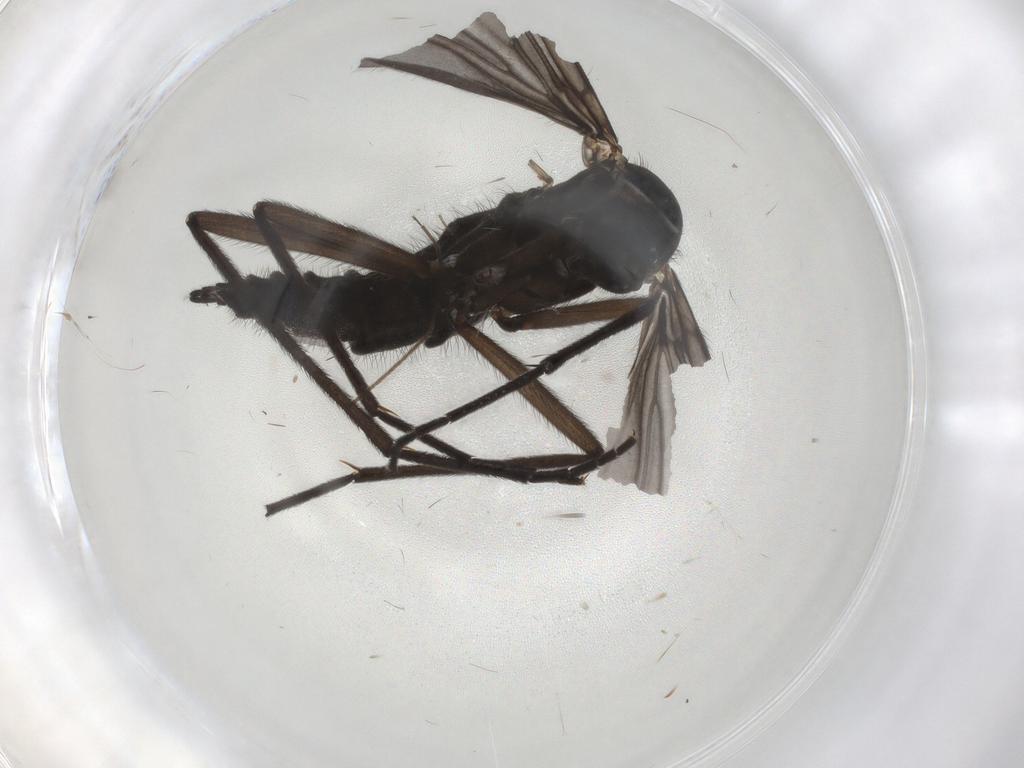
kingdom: Animalia
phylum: Arthropoda
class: Insecta
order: Diptera
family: Sciaridae
